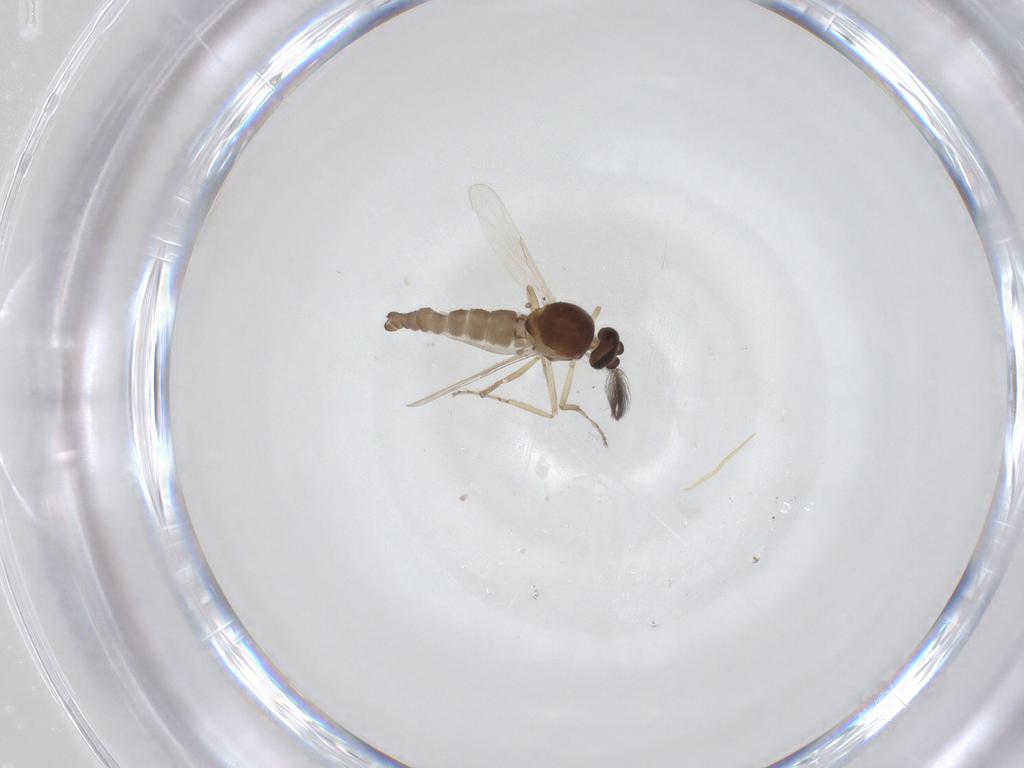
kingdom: Animalia
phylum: Arthropoda
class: Insecta
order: Diptera
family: Ceratopogonidae
